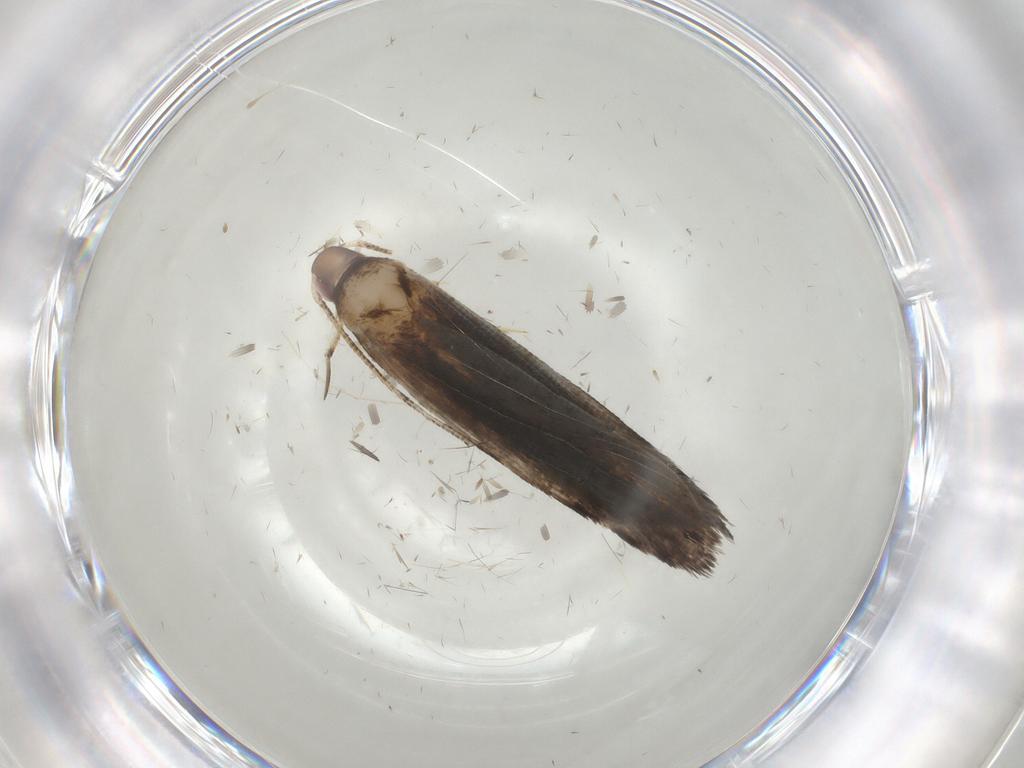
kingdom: Animalia
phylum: Arthropoda
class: Insecta
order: Lepidoptera
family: Gelechiidae
